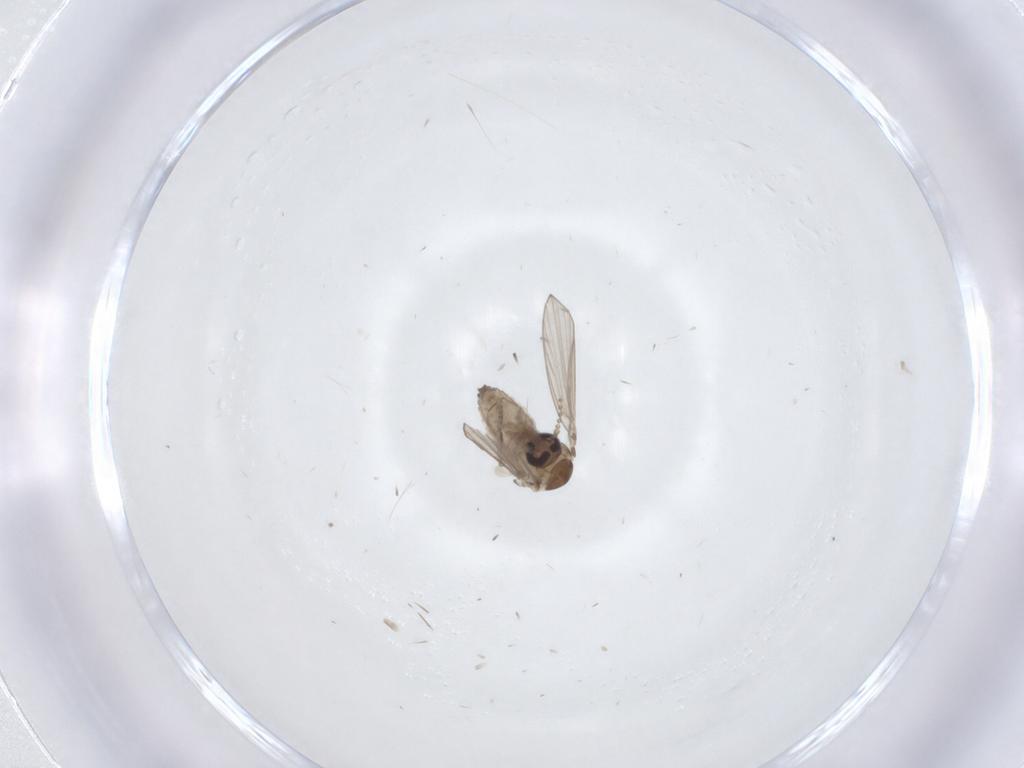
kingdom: Animalia
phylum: Arthropoda
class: Insecta
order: Diptera
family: Psychodidae
